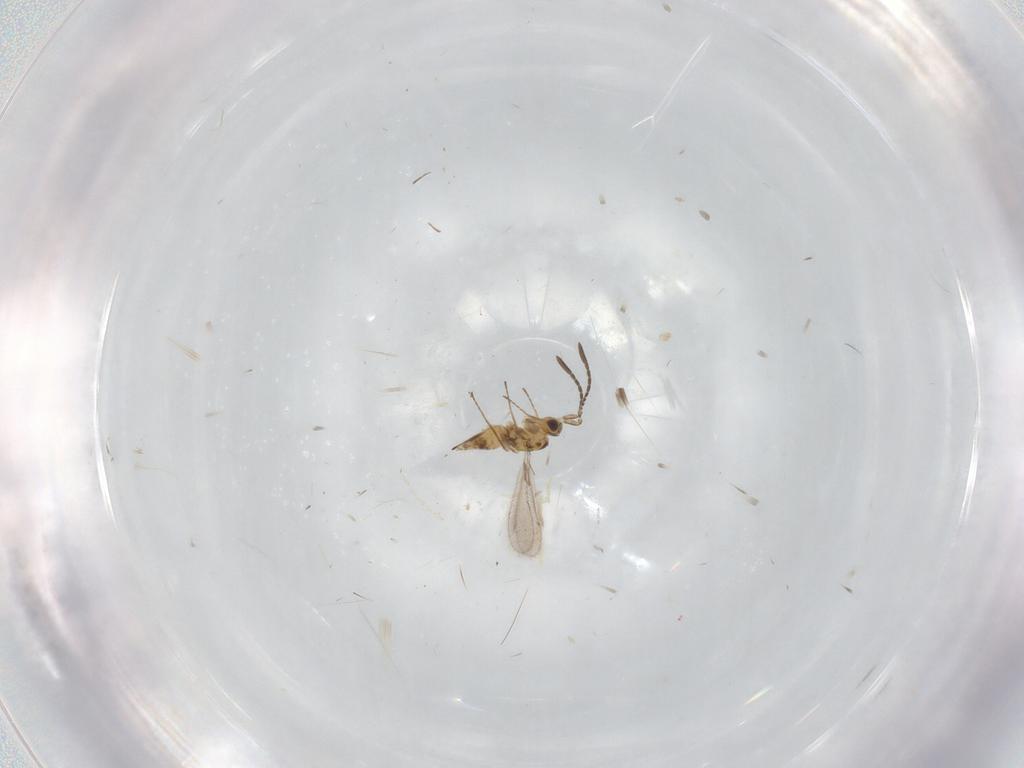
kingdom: Animalia
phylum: Arthropoda
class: Insecta
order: Hymenoptera
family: Mymaridae
